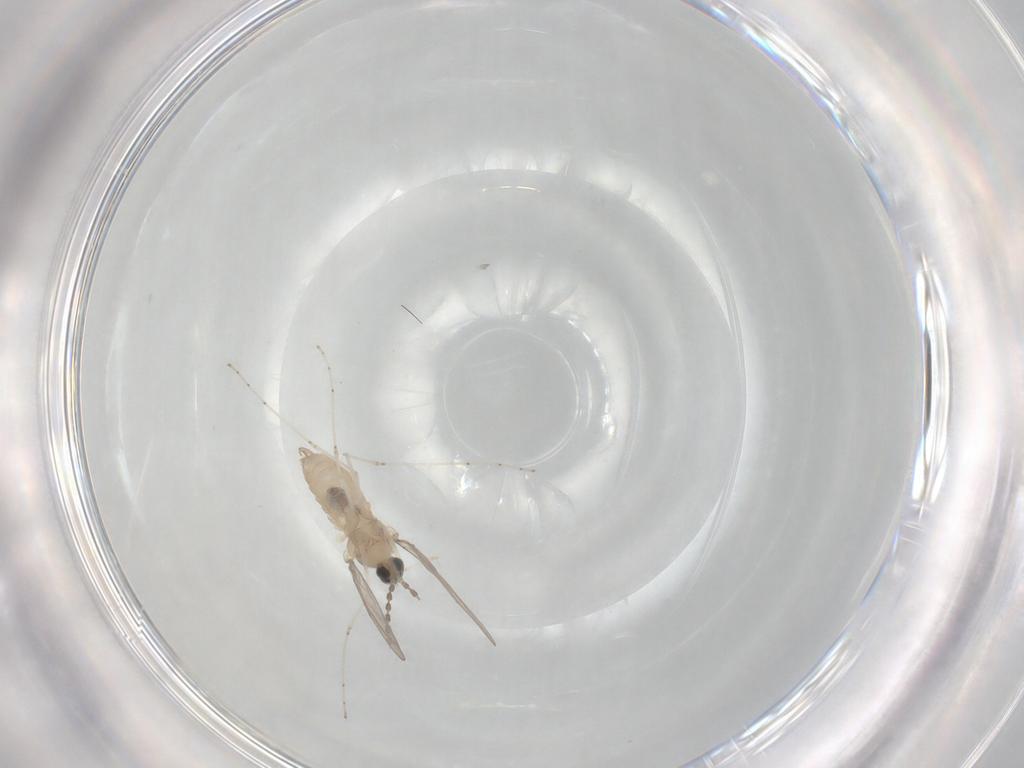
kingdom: Animalia
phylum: Arthropoda
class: Insecta
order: Diptera
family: Cecidomyiidae
